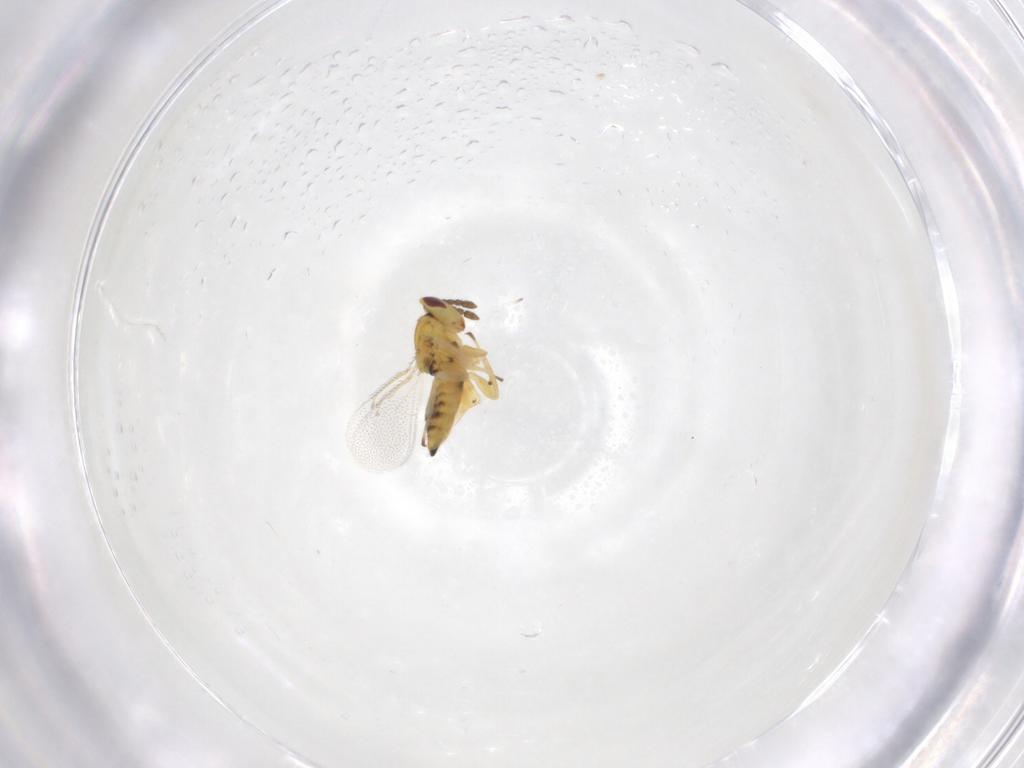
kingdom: Animalia
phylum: Arthropoda
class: Insecta
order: Hymenoptera
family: Eulophidae
